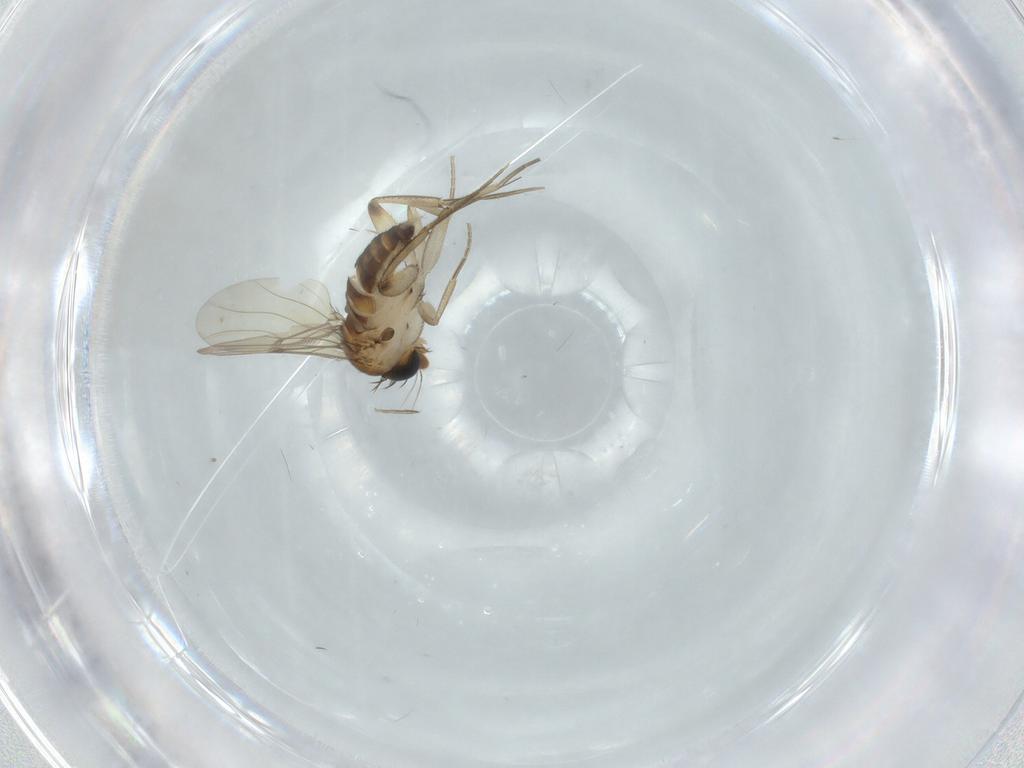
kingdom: Animalia
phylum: Arthropoda
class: Insecta
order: Diptera
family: Phoridae
